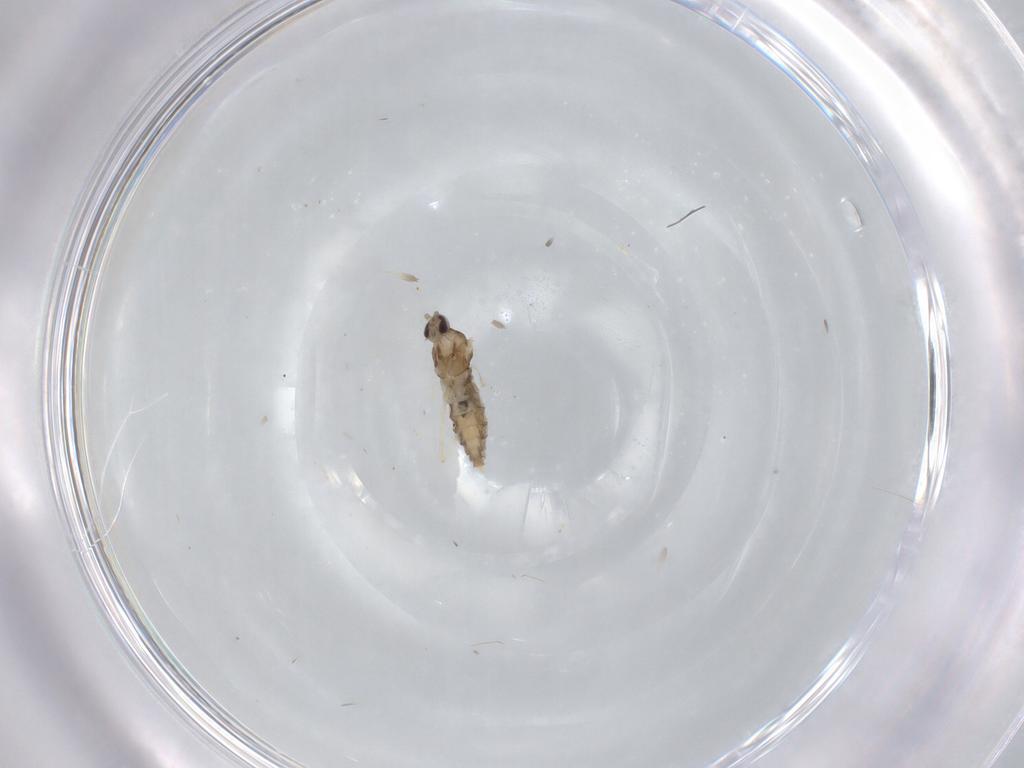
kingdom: Animalia
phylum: Arthropoda
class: Insecta
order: Diptera
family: Cecidomyiidae
